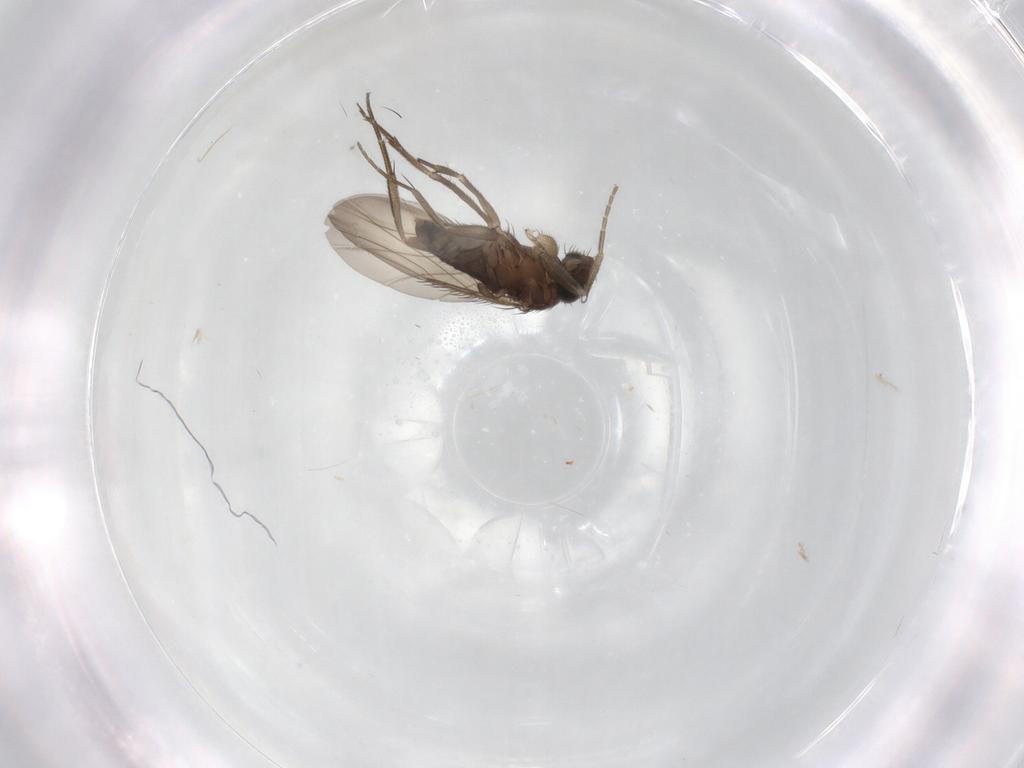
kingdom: Animalia
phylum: Arthropoda
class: Insecta
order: Diptera
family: Phoridae
